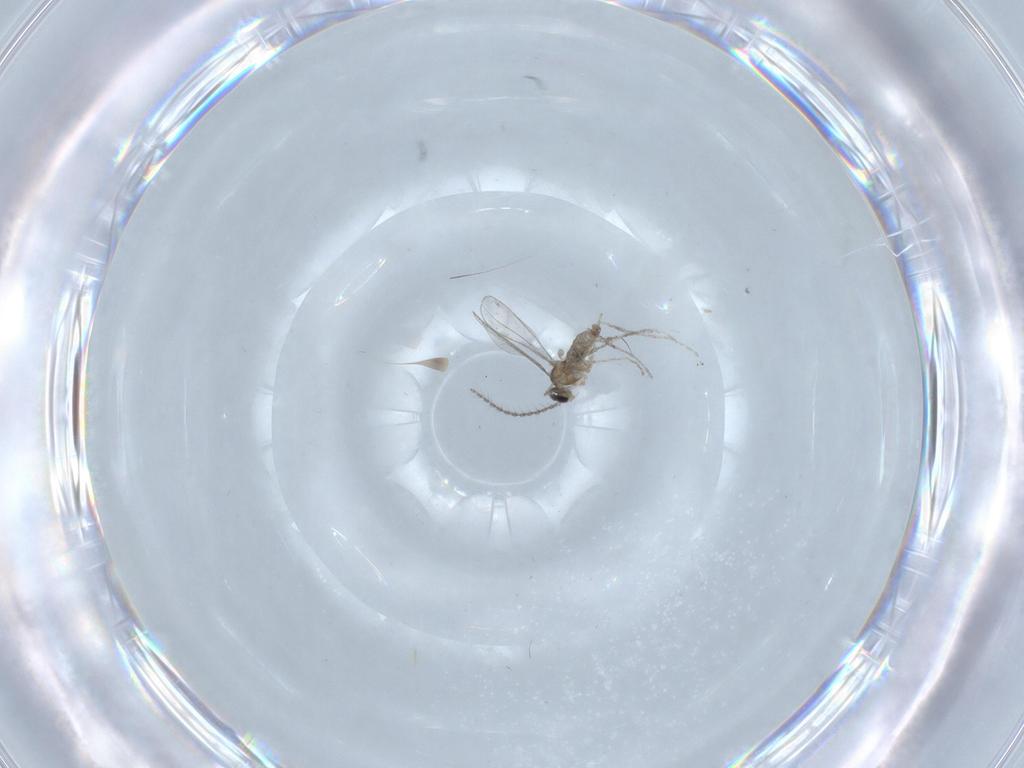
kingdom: Animalia
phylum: Arthropoda
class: Insecta
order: Diptera
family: Cecidomyiidae
